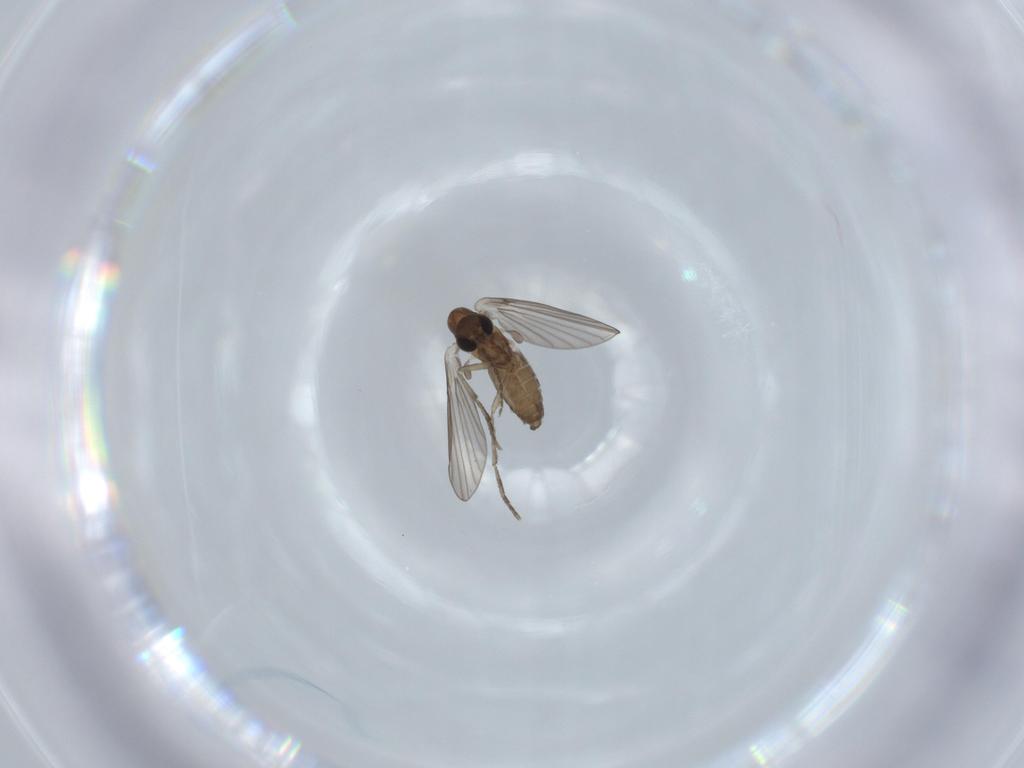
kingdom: Animalia
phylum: Arthropoda
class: Insecta
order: Diptera
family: Psychodidae
